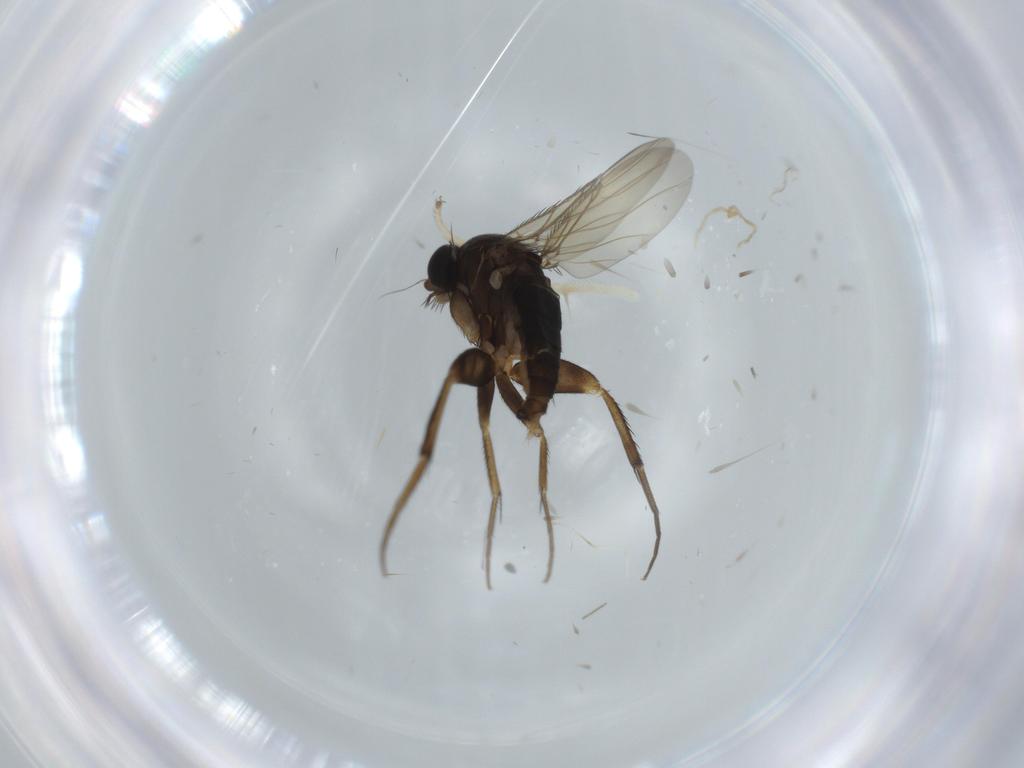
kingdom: Animalia
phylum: Arthropoda
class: Insecta
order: Diptera
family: Phoridae
